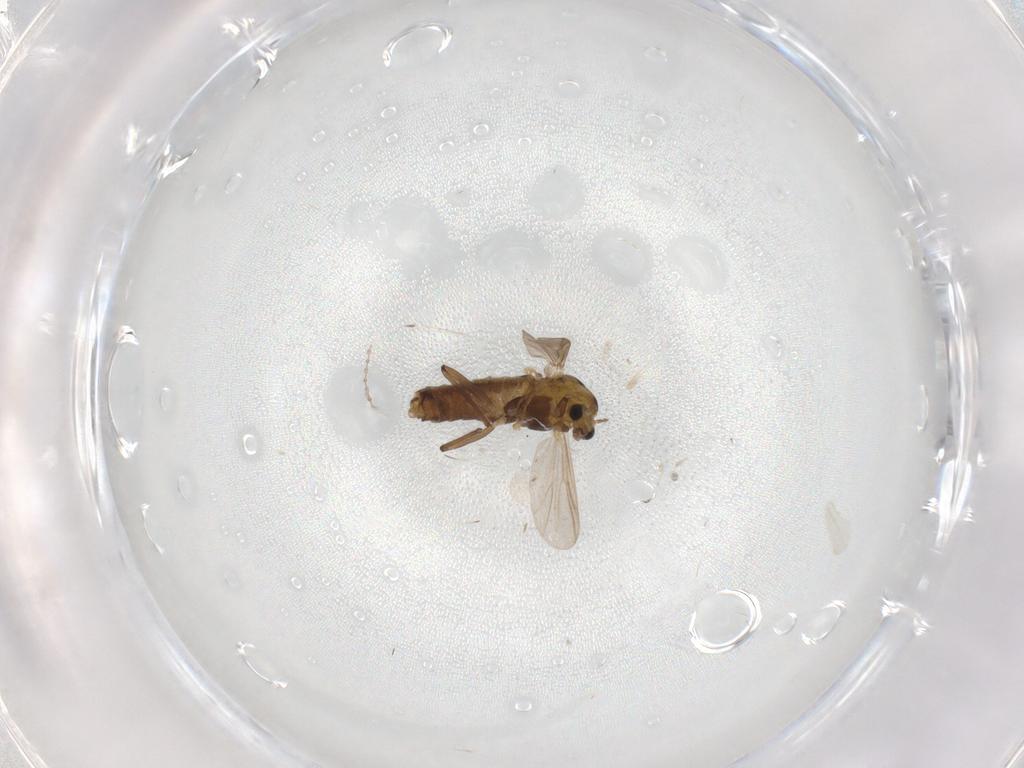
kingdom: Animalia
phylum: Arthropoda
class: Insecta
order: Diptera
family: Chironomidae
